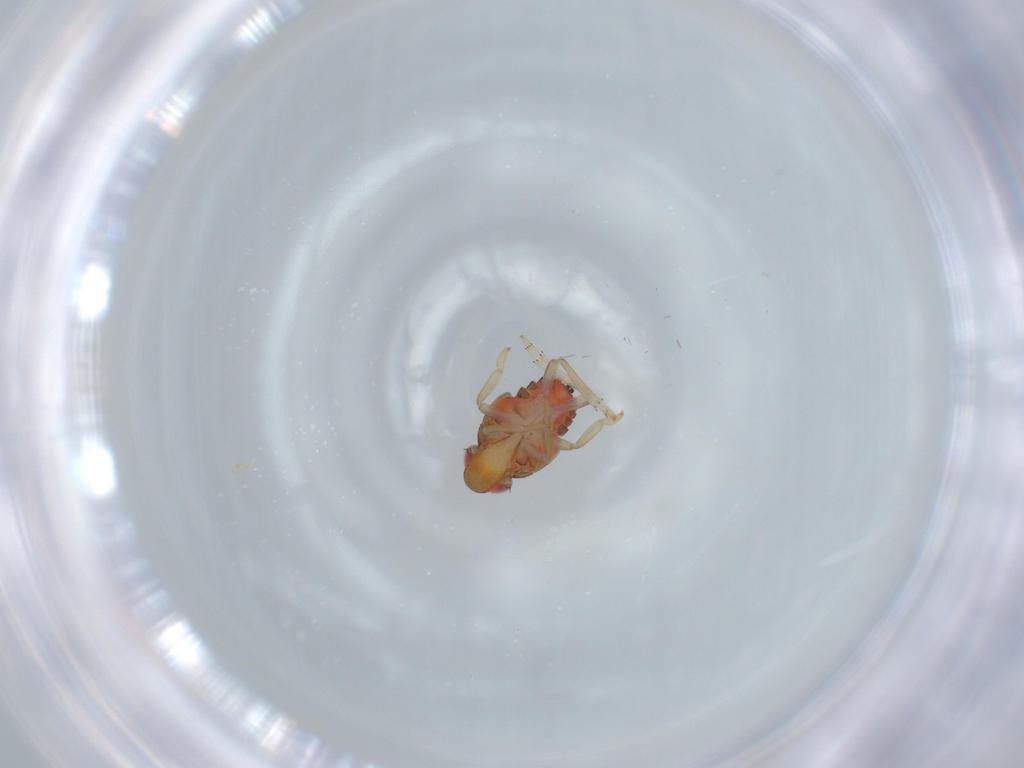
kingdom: Animalia
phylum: Arthropoda
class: Insecta
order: Hemiptera
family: Issidae
